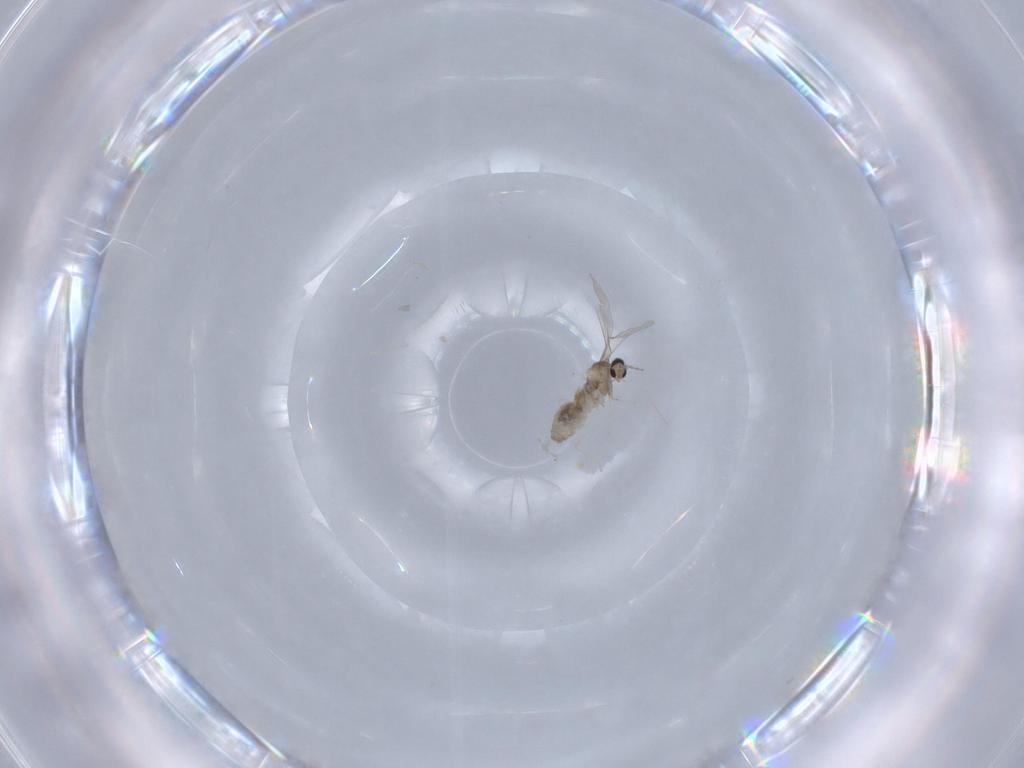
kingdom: Animalia
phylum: Arthropoda
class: Insecta
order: Diptera
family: Cecidomyiidae
